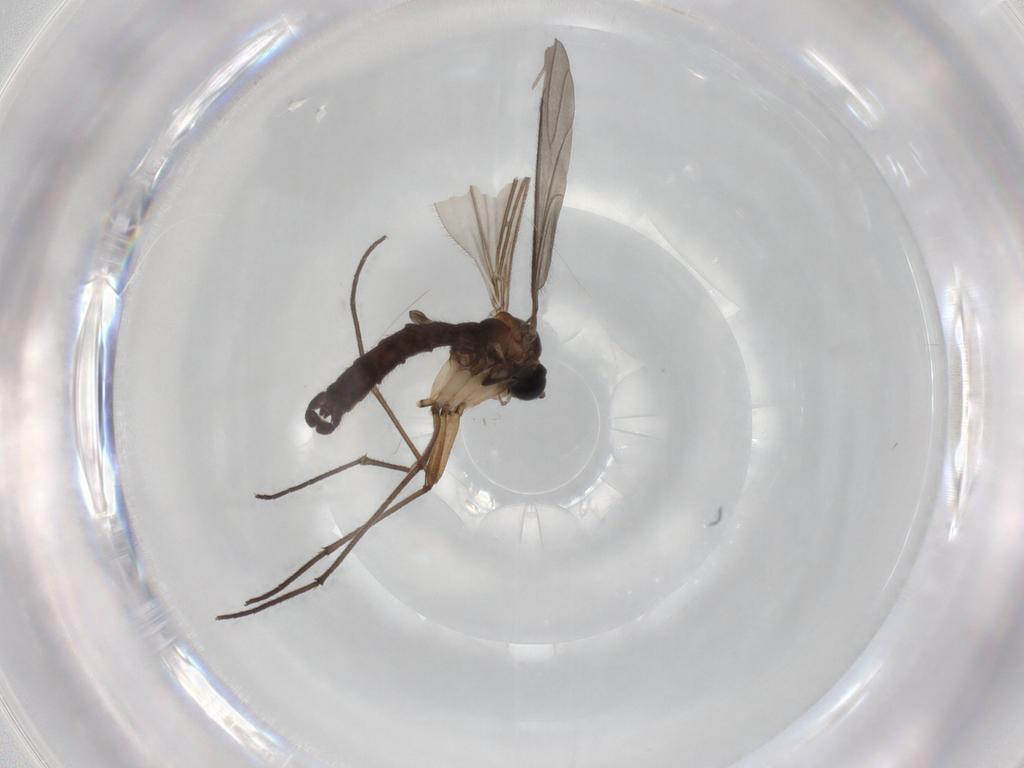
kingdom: Animalia
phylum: Arthropoda
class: Insecta
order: Diptera
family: Sciaridae
